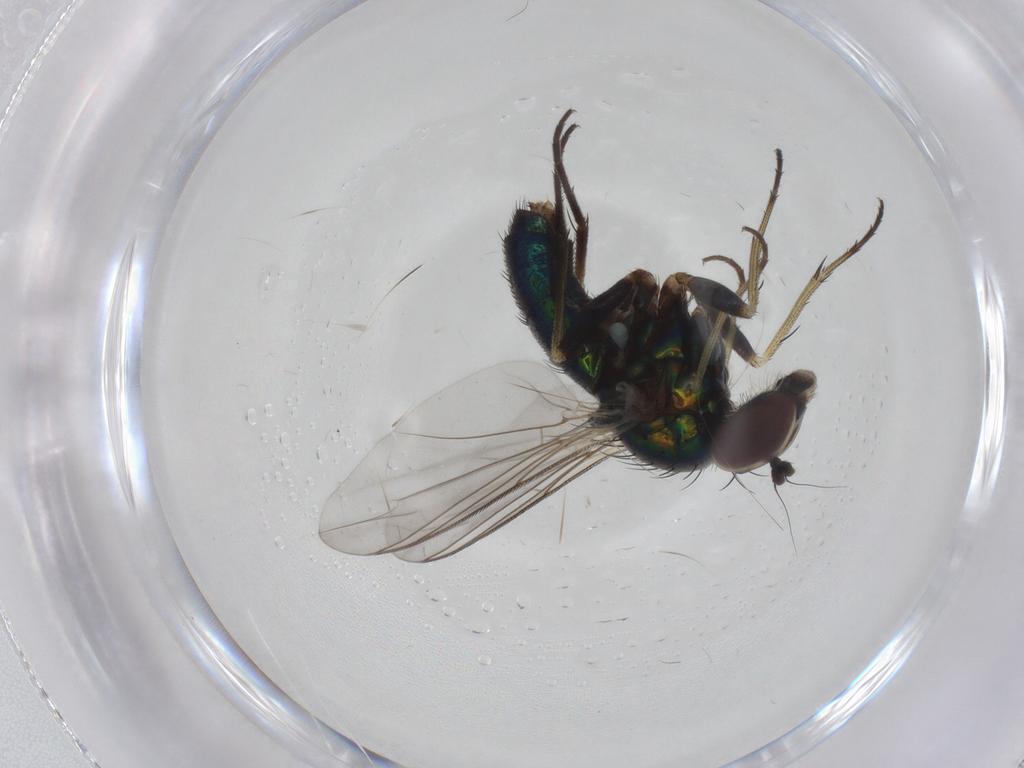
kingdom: Animalia
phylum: Arthropoda
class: Insecta
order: Diptera
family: Dolichopodidae
